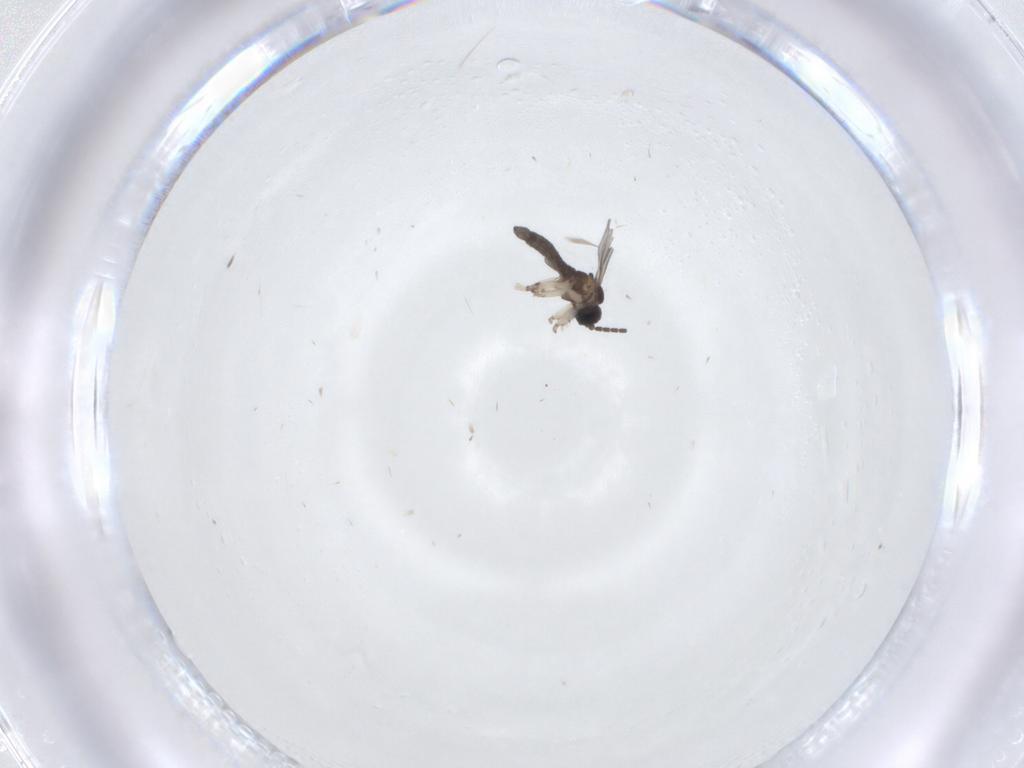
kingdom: Animalia
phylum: Arthropoda
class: Insecta
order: Diptera
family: Sciaridae
